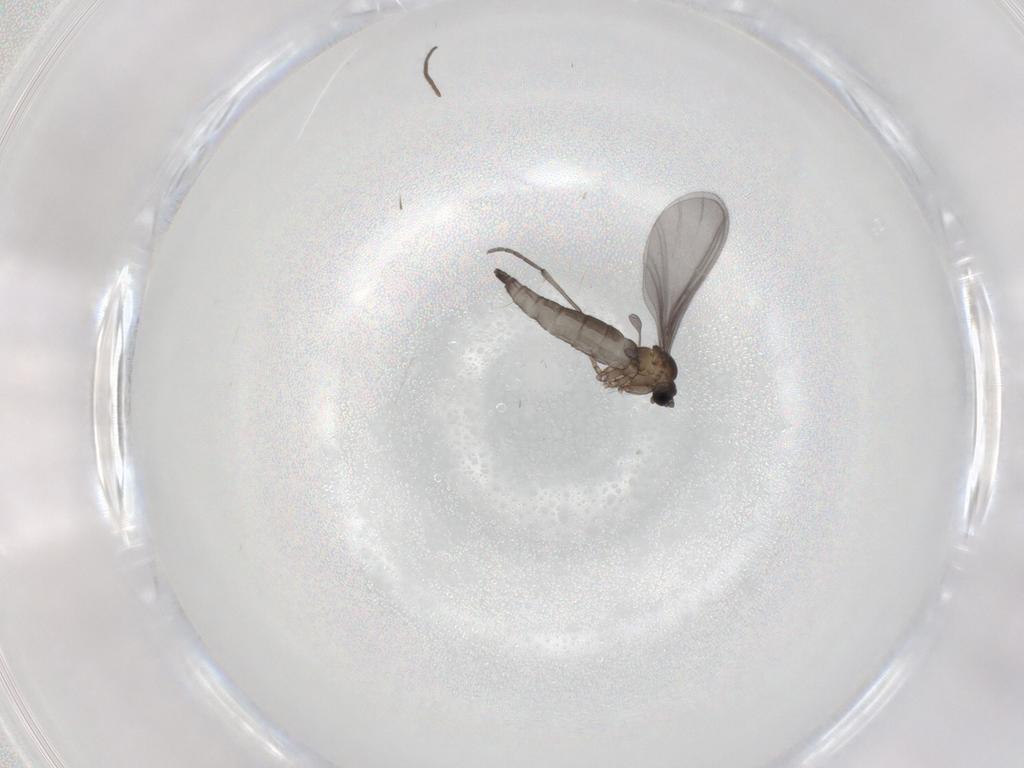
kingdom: Animalia
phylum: Arthropoda
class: Insecta
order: Diptera
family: Sciaridae
